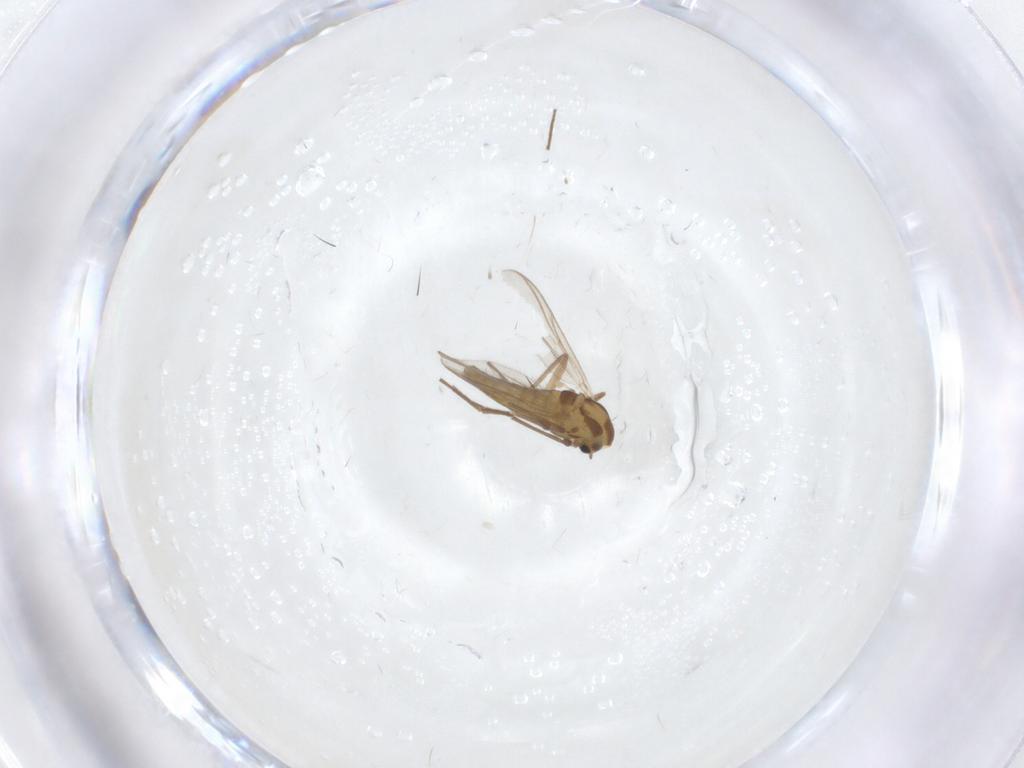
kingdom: Animalia
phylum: Arthropoda
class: Insecta
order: Diptera
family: Chironomidae
